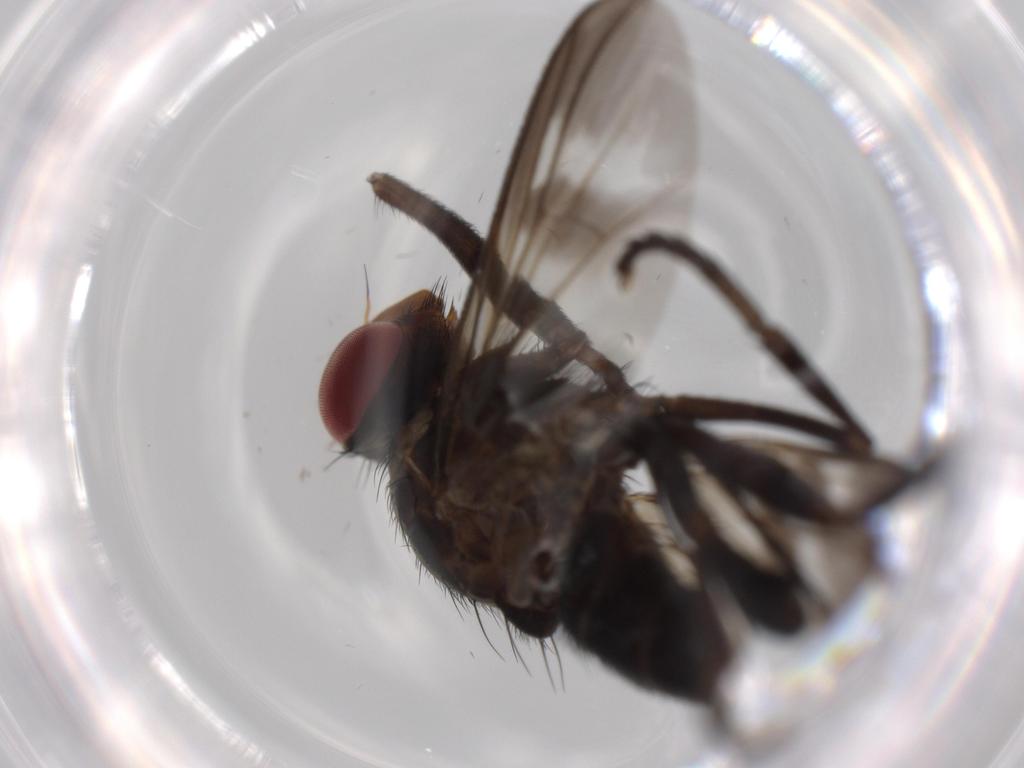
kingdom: Animalia
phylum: Arthropoda
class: Insecta
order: Diptera
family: Calliphoridae
